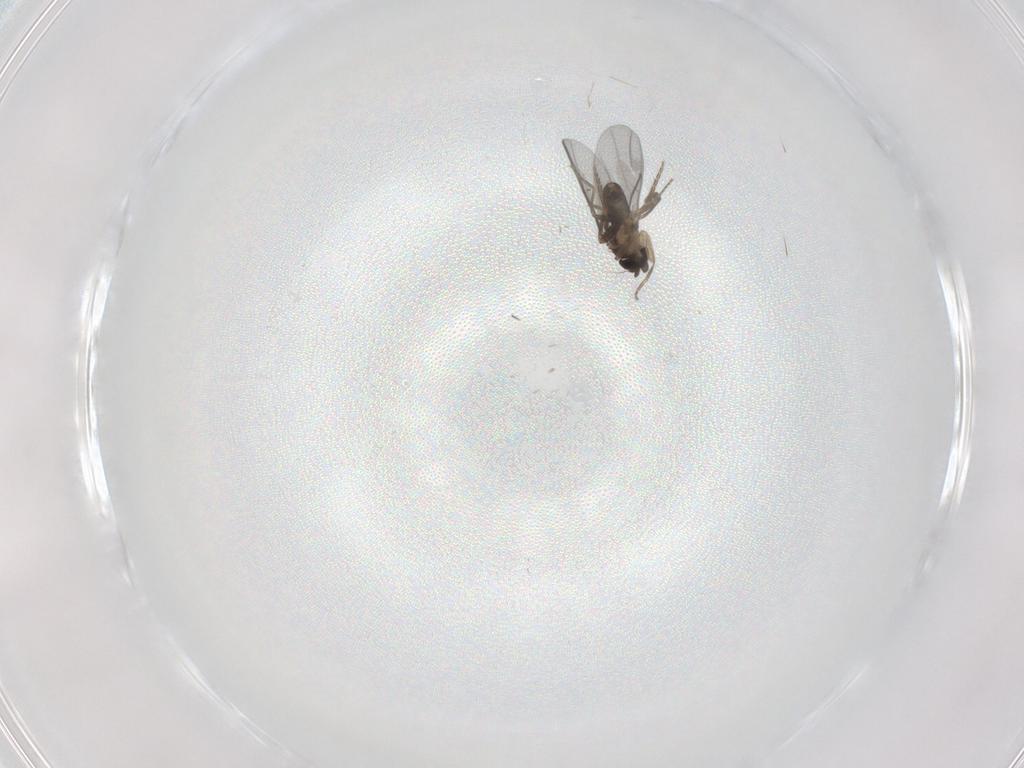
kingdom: Animalia
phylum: Arthropoda
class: Insecta
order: Diptera
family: Chironomidae
